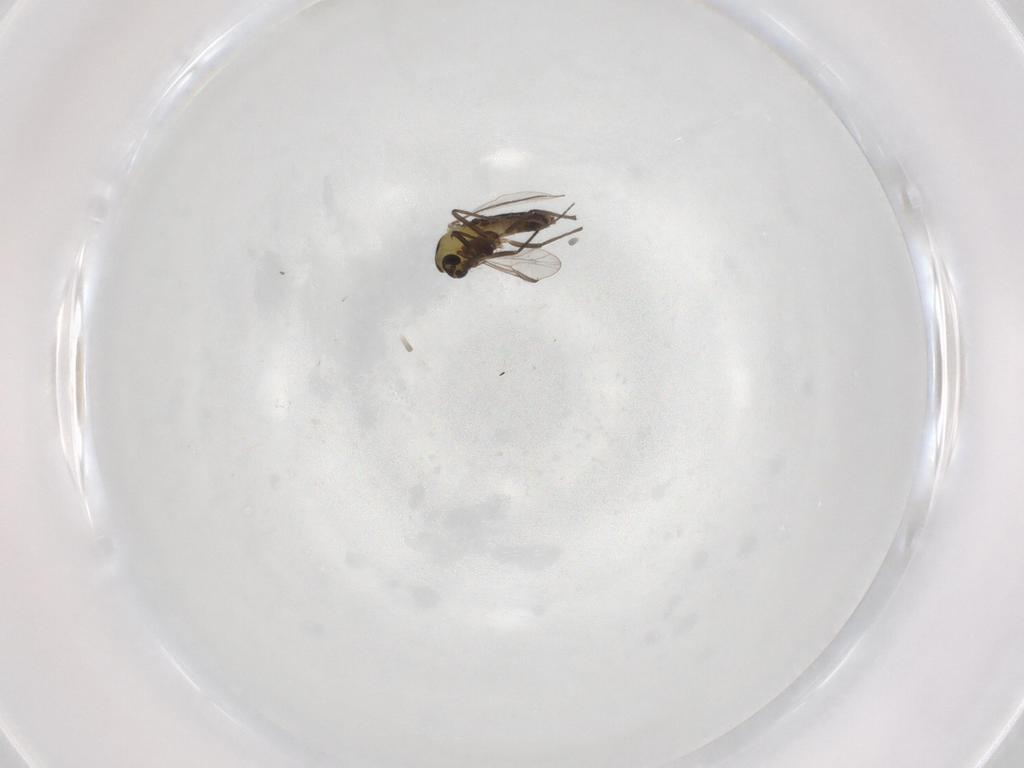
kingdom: Animalia
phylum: Arthropoda
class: Insecta
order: Diptera
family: Chironomidae
